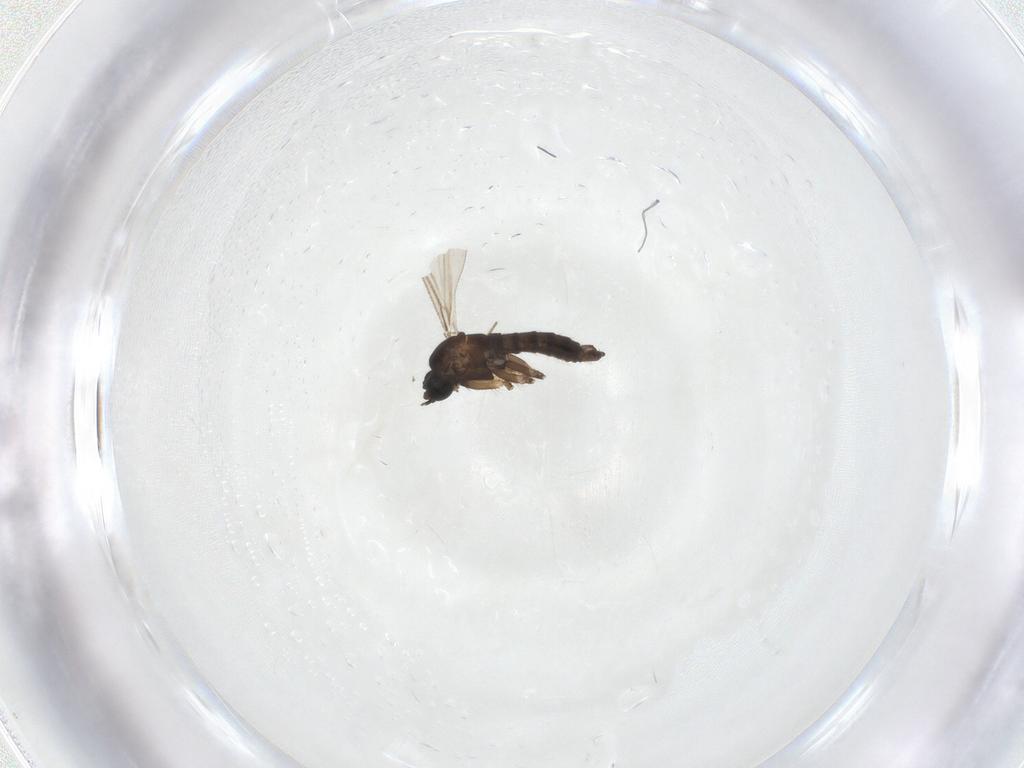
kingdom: Animalia
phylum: Arthropoda
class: Insecta
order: Diptera
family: Sciaridae
